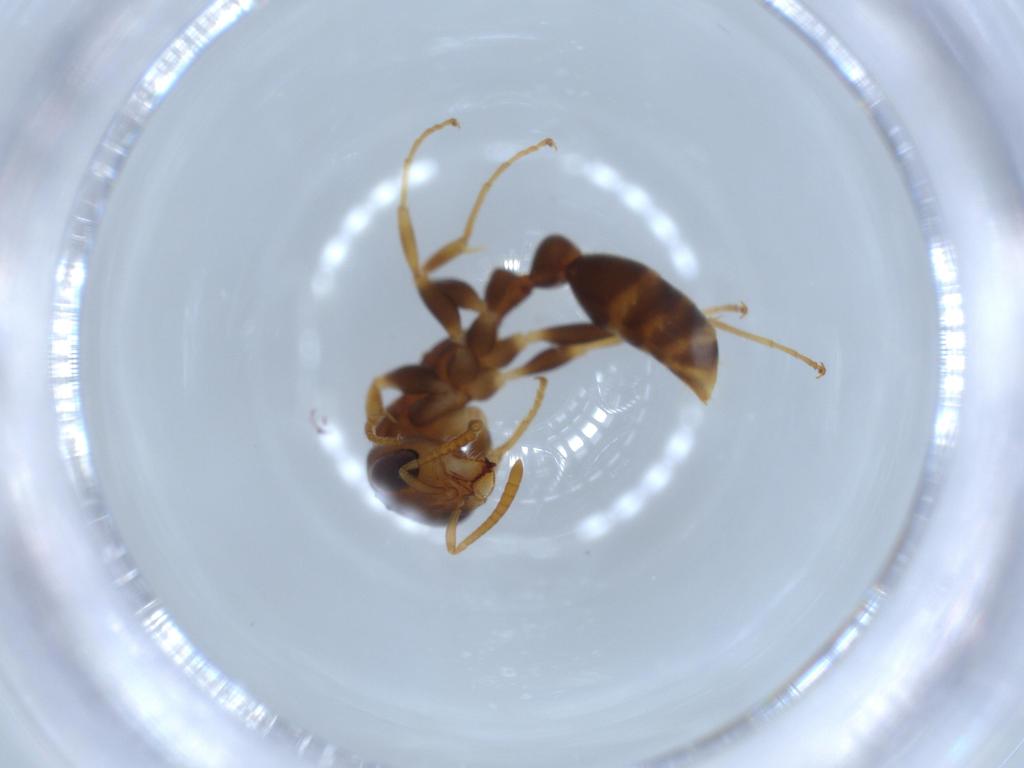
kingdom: Animalia
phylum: Arthropoda
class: Insecta
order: Hymenoptera
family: Formicidae
